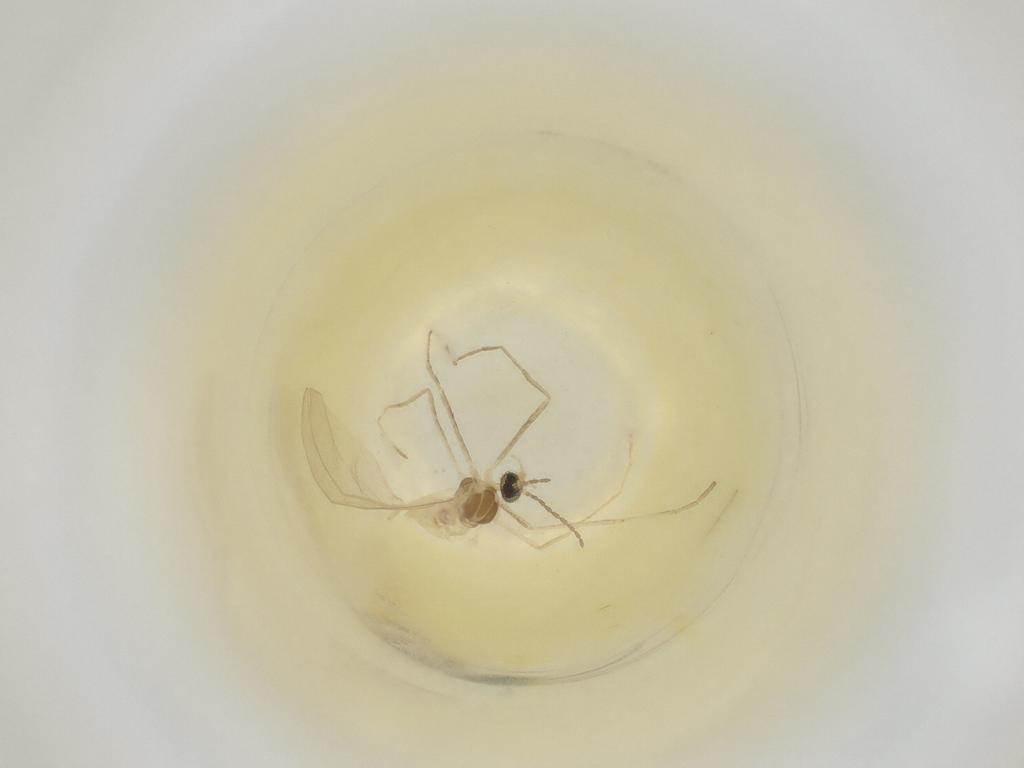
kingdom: Animalia
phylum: Arthropoda
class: Insecta
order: Diptera
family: Cecidomyiidae
